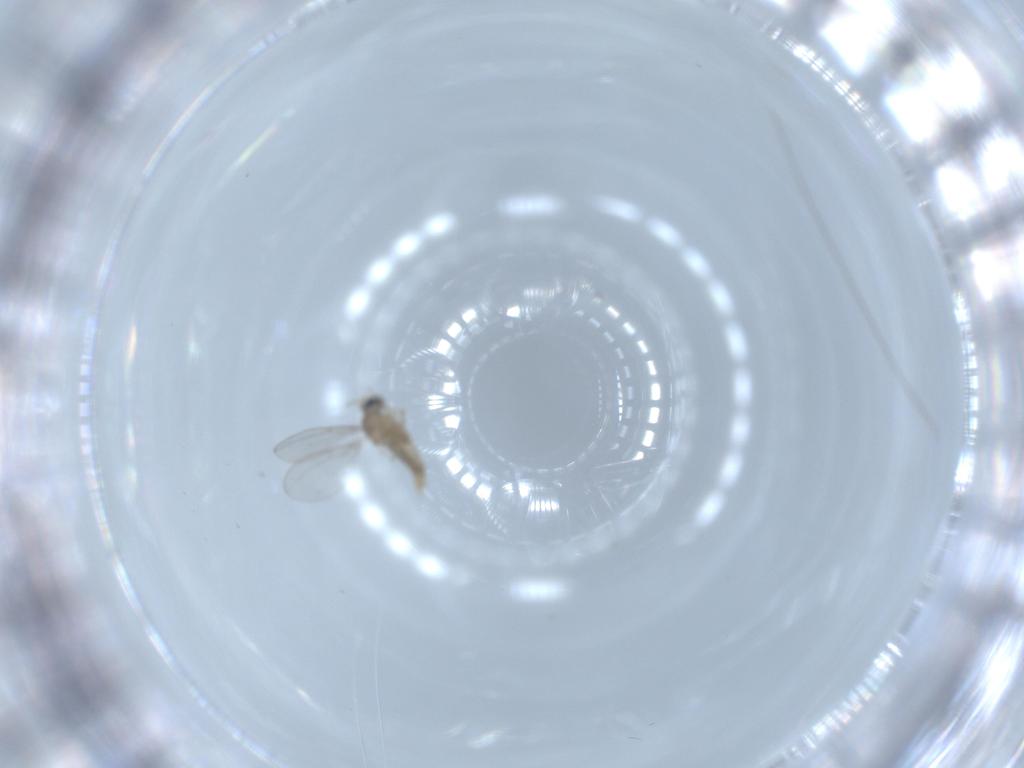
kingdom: Animalia
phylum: Arthropoda
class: Insecta
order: Diptera
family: Cecidomyiidae
